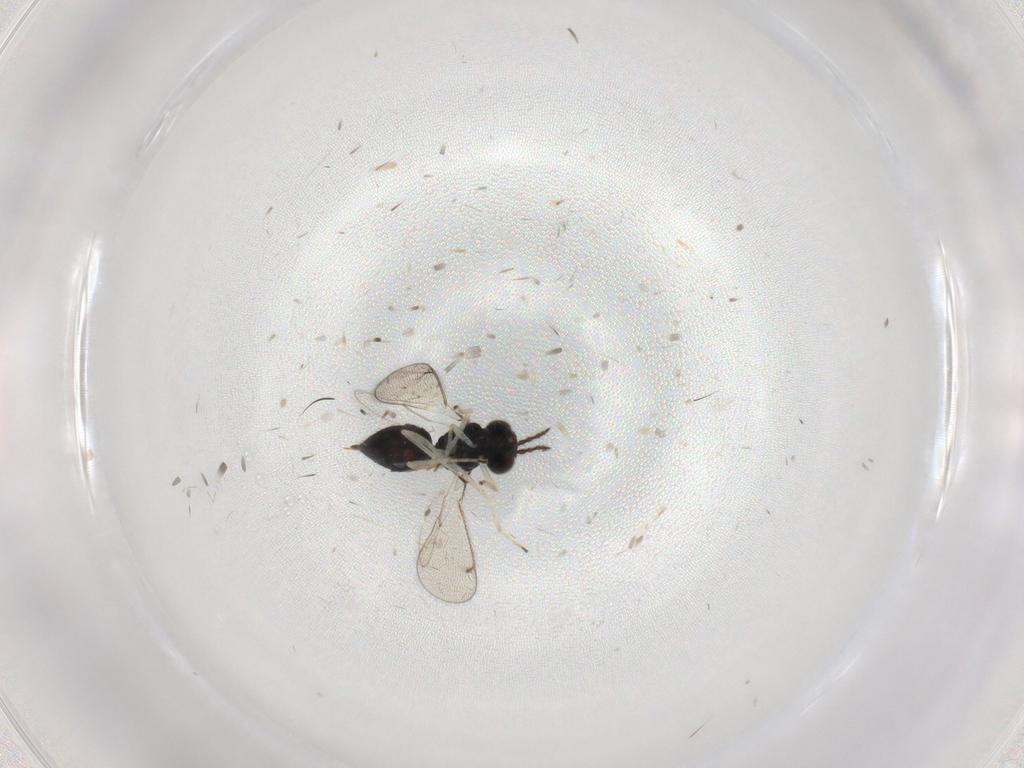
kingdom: Animalia
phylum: Arthropoda
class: Insecta
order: Hymenoptera
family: Eulophidae
